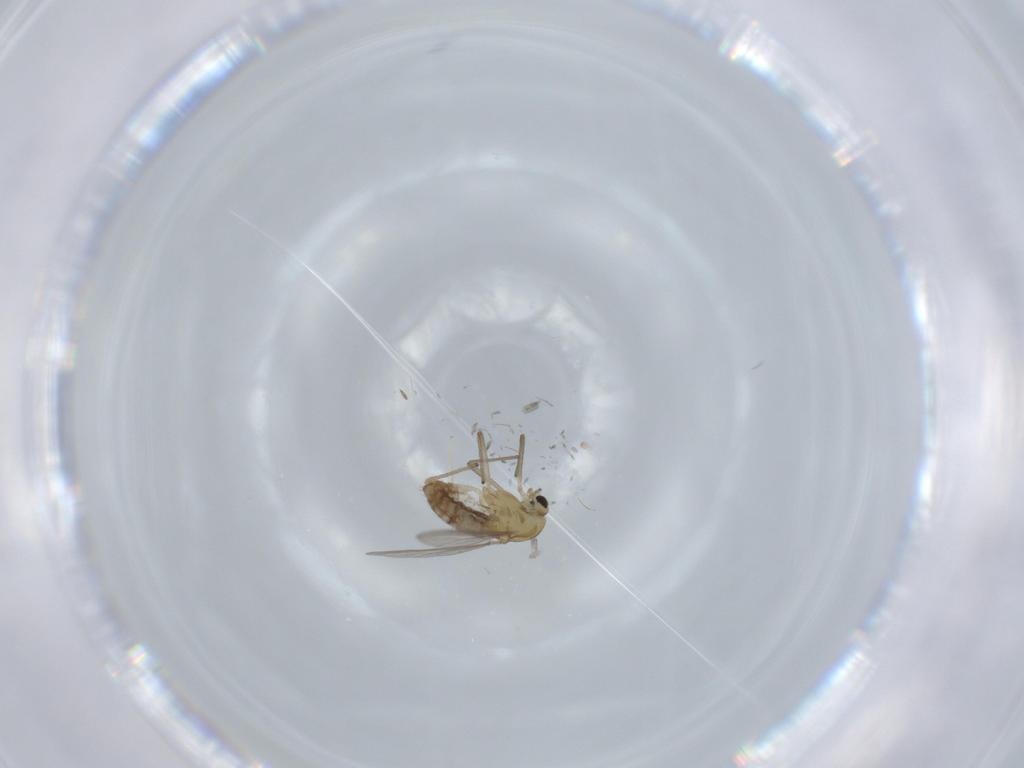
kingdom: Animalia
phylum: Arthropoda
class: Insecta
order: Diptera
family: Chironomidae
